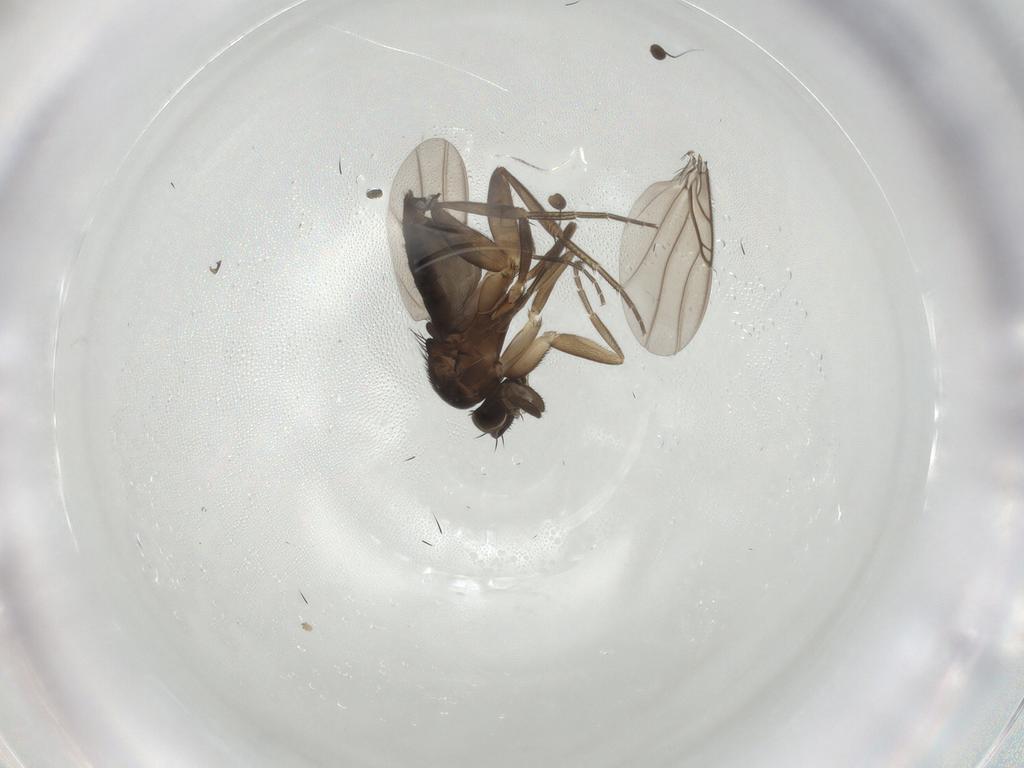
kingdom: Animalia
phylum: Arthropoda
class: Insecta
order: Diptera
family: Phoridae
